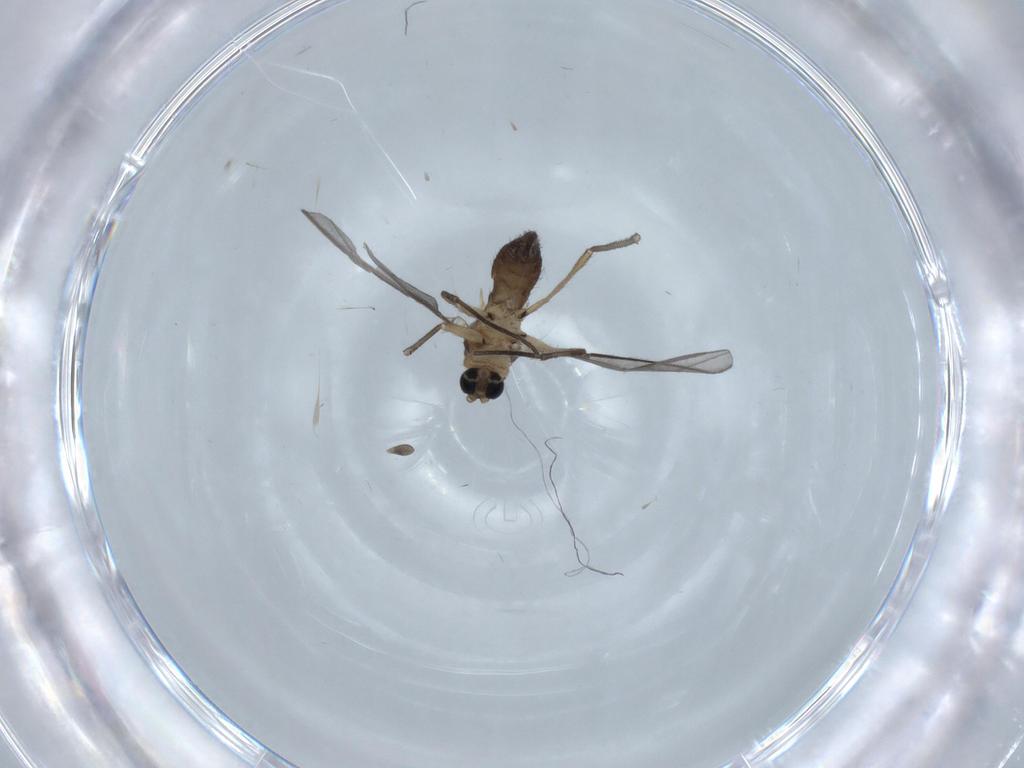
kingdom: Animalia
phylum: Arthropoda
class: Insecta
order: Diptera
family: Sciaridae
